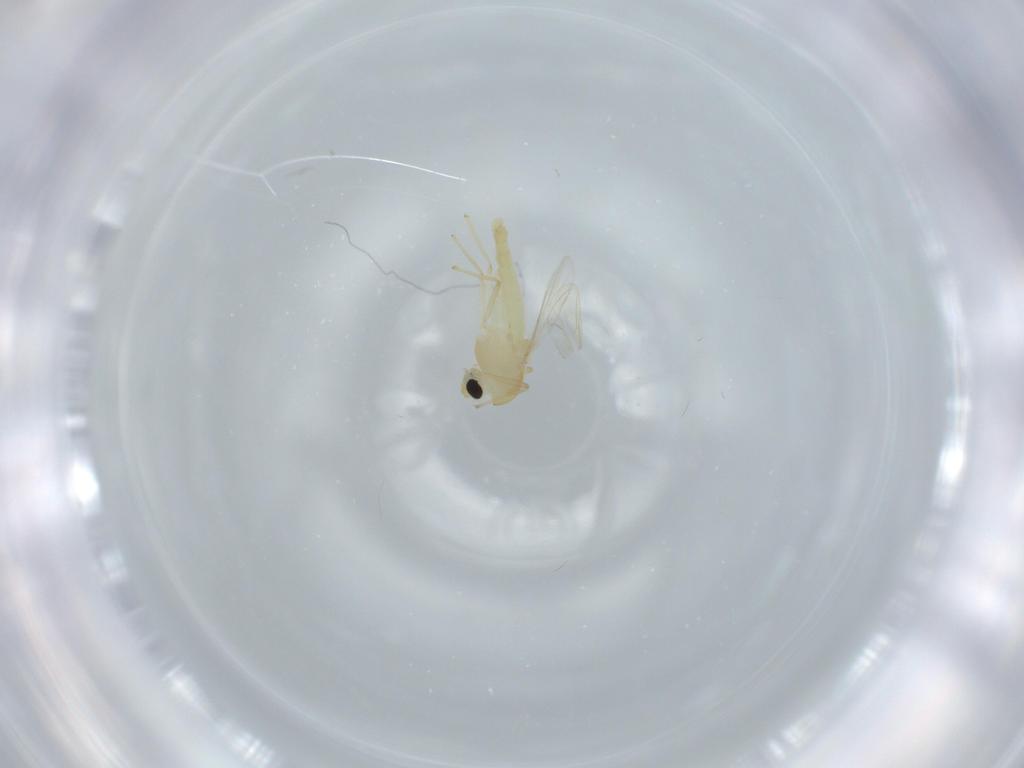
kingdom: Animalia
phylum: Arthropoda
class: Insecta
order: Diptera
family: Chironomidae
